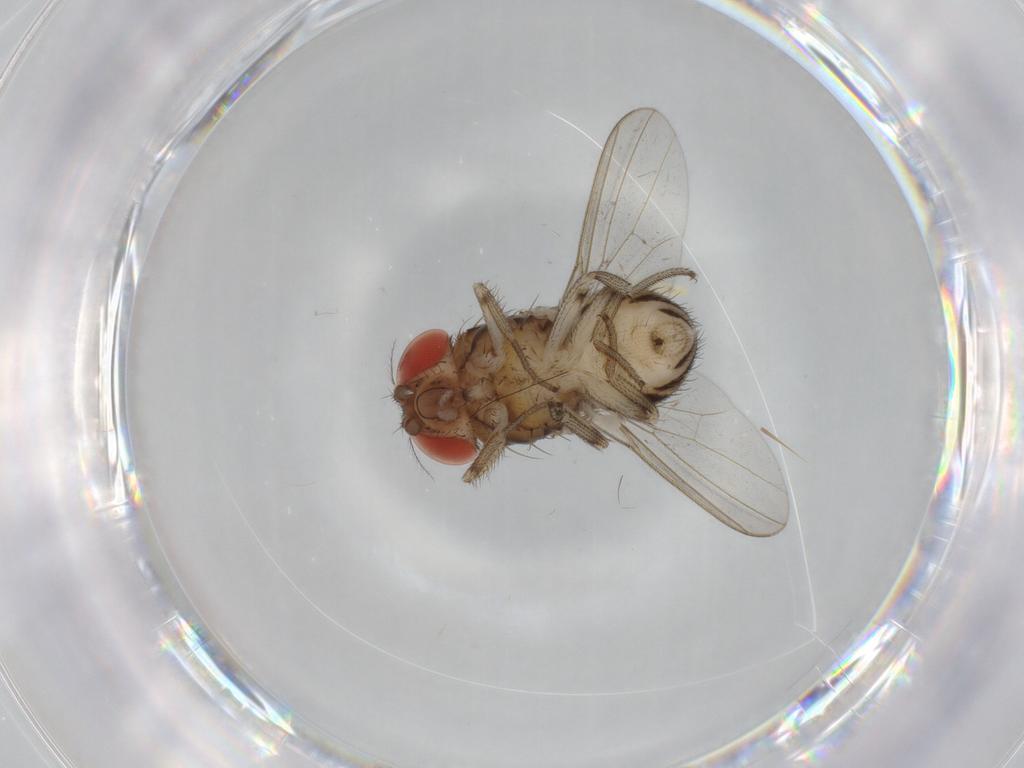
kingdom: Animalia
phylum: Arthropoda
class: Insecta
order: Diptera
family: Drosophilidae
